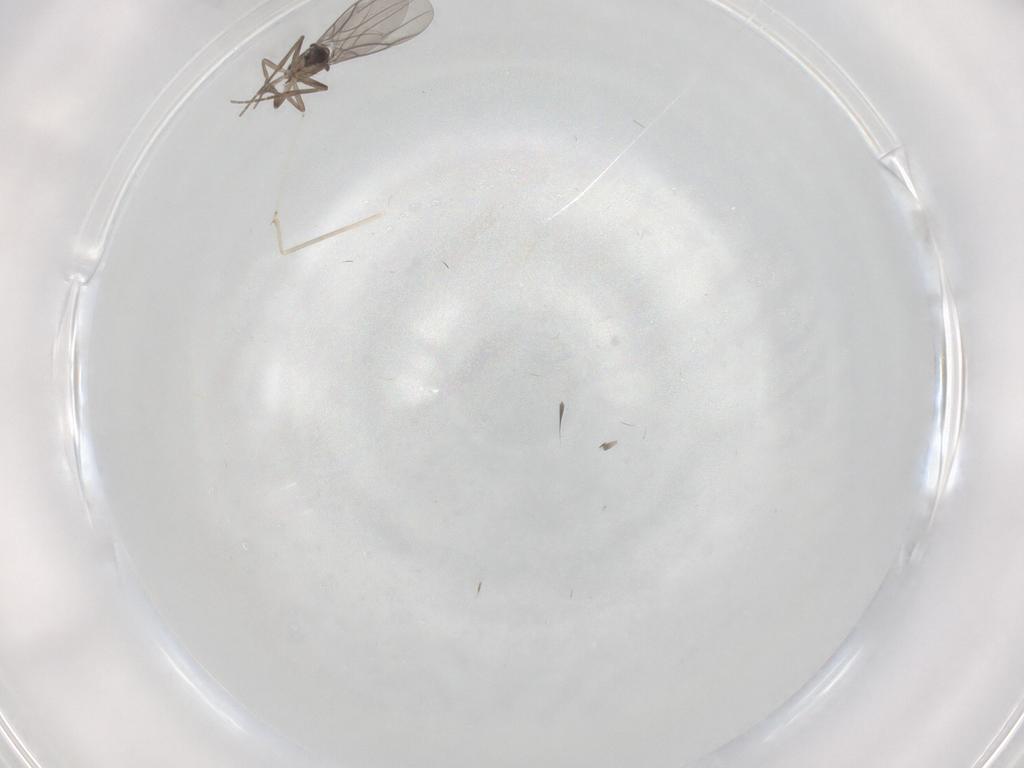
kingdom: Animalia
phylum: Arthropoda
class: Insecta
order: Diptera
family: Phoridae
